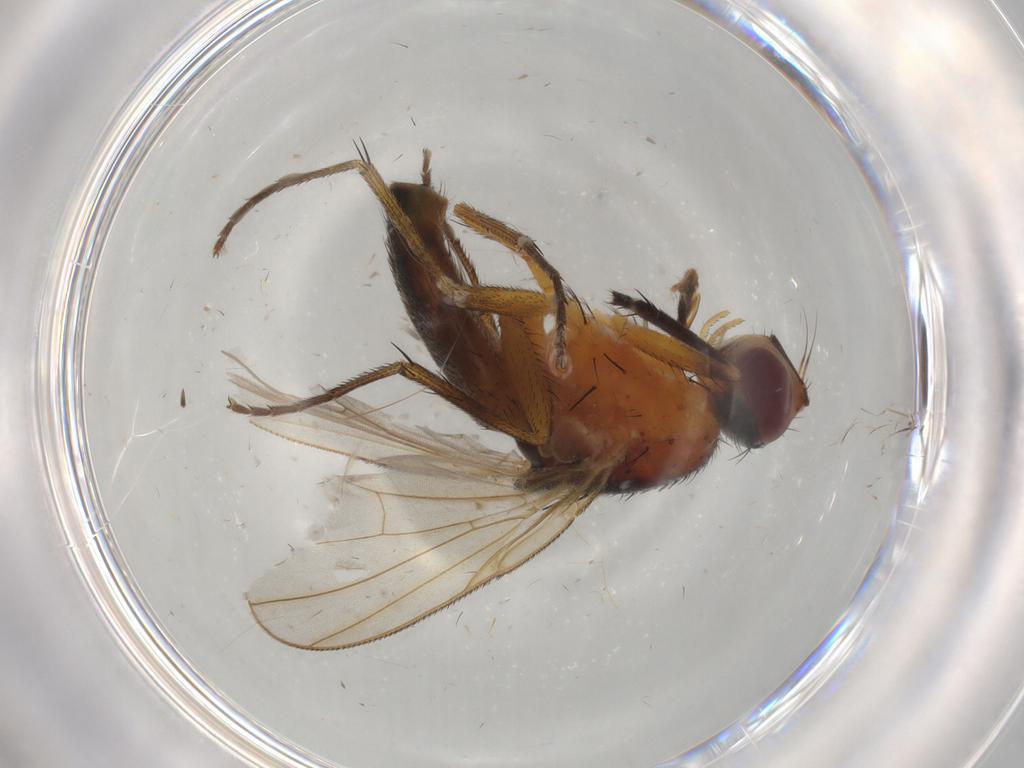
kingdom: Animalia
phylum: Arthropoda
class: Insecta
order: Diptera
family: Muscidae
